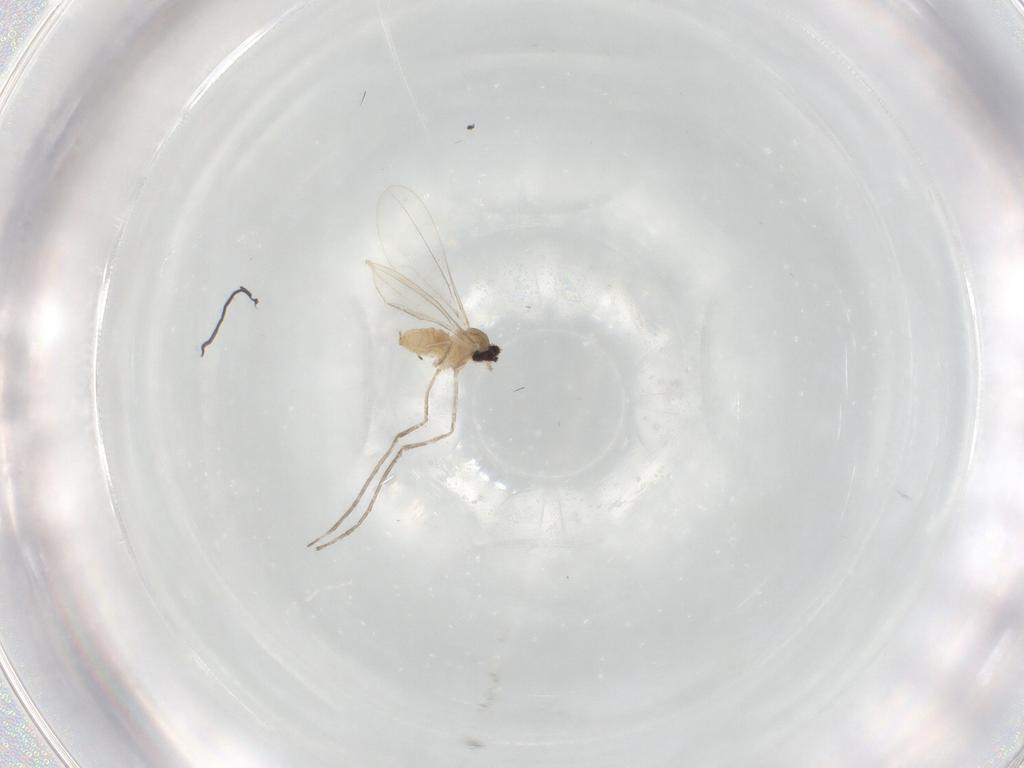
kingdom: Animalia
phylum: Arthropoda
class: Insecta
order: Diptera
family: Cecidomyiidae
